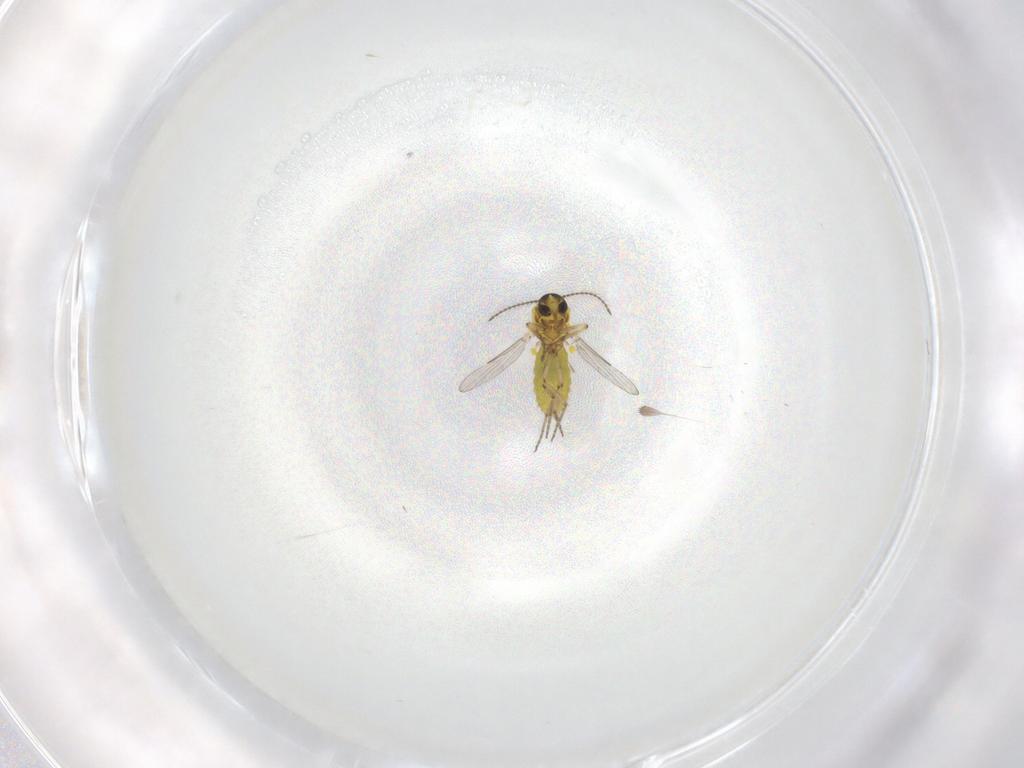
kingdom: Animalia
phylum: Arthropoda
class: Insecta
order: Diptera
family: Ceratopogonidae
